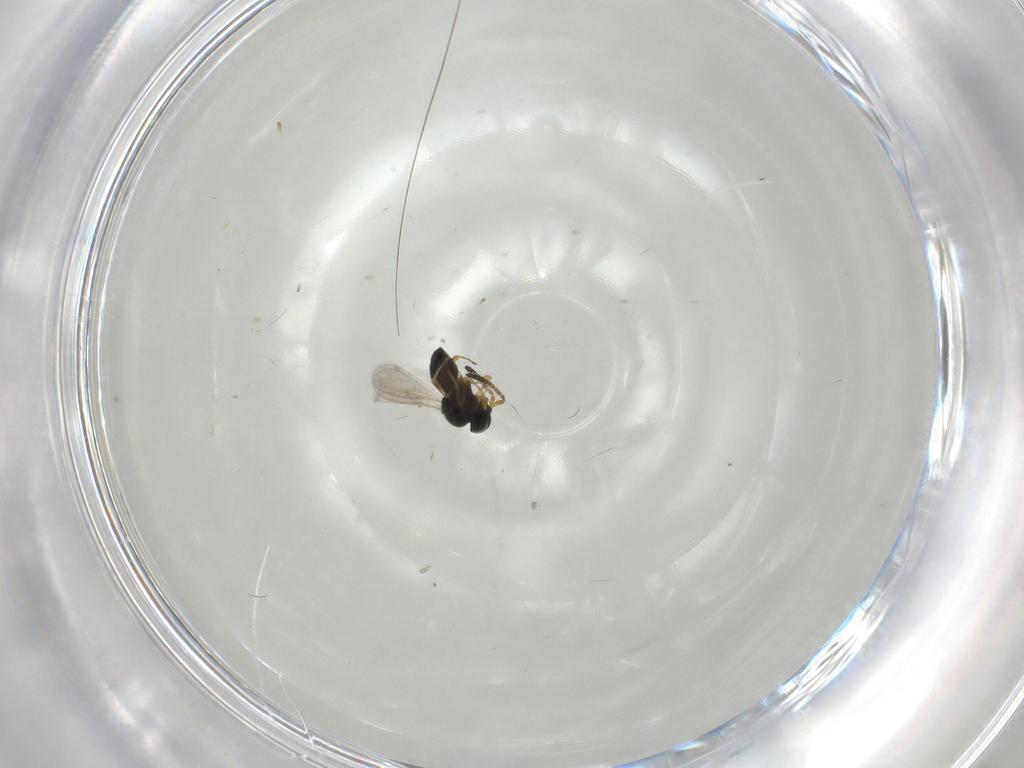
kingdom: Animalia
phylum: Arthropoda
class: Insecta
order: Hymenoptera
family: Scelionidae
